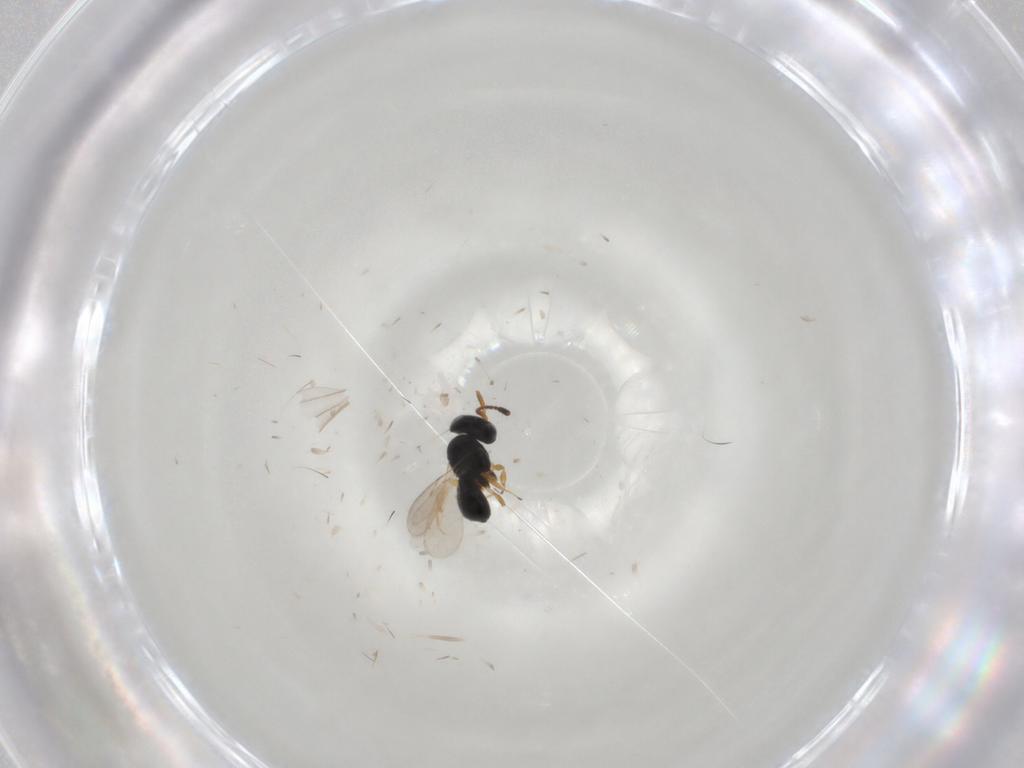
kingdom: Animalia
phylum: Arthropoda
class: Insecta
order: Hymenoptera
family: Scelionidae
